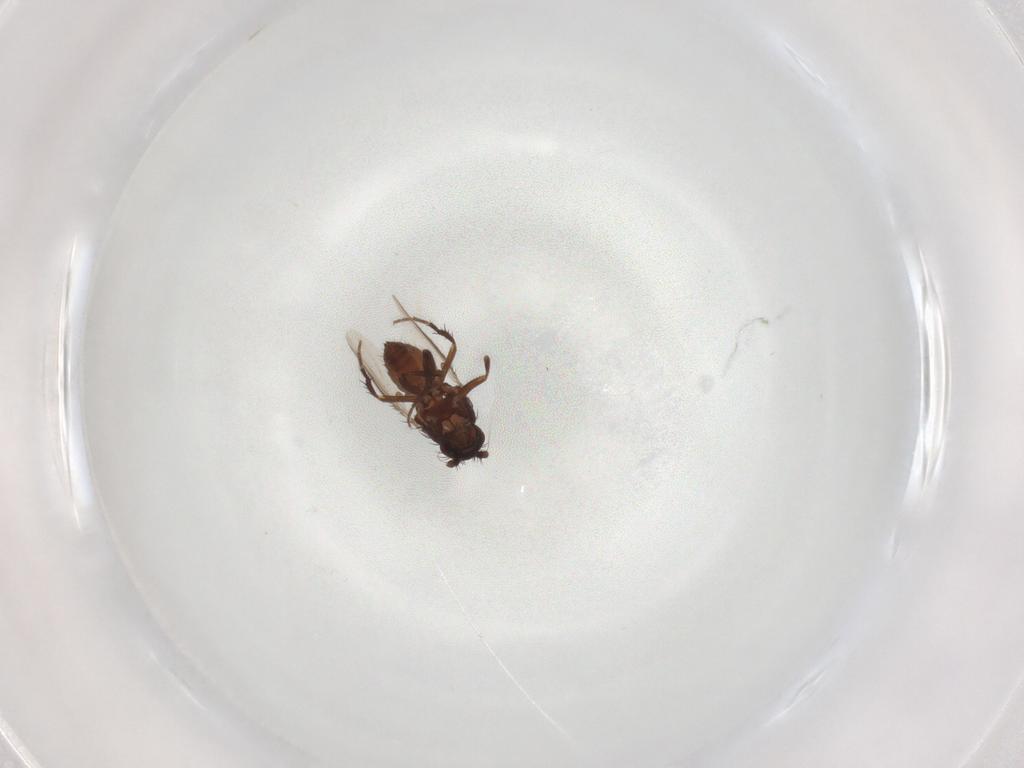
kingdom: Animalia
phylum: Arthropoda
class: Insecta
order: Diptera
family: Sphaeroceridae
